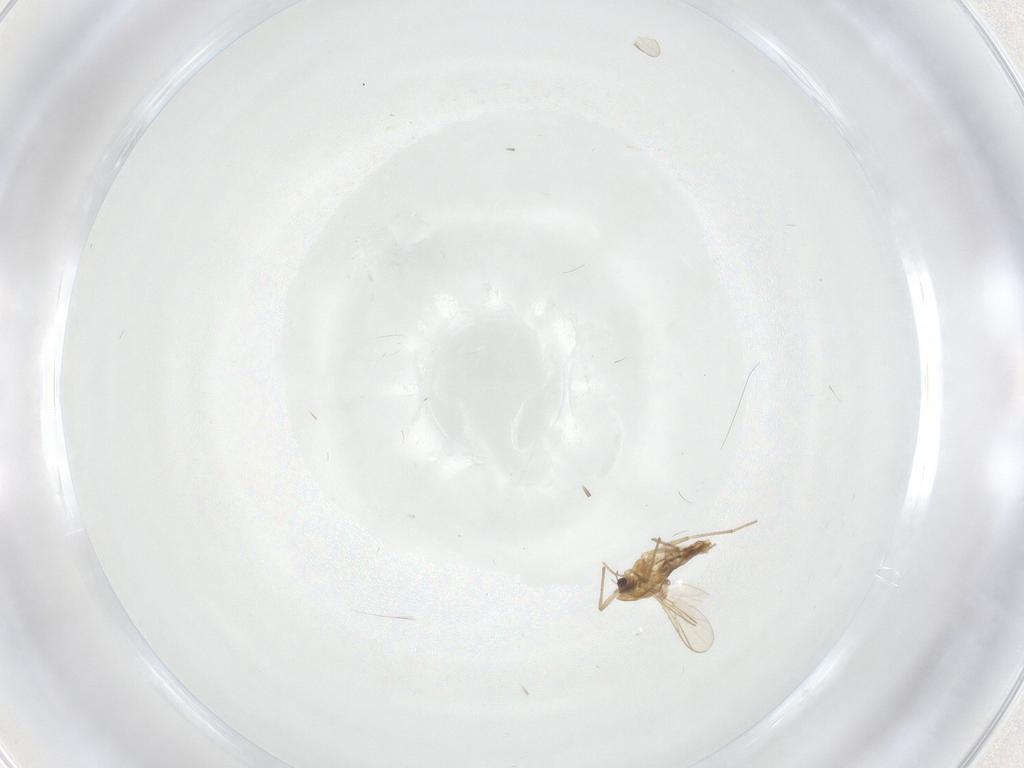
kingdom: Animalia
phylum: Arthropoda
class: Insecta
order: Diptera
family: Chironomidae
